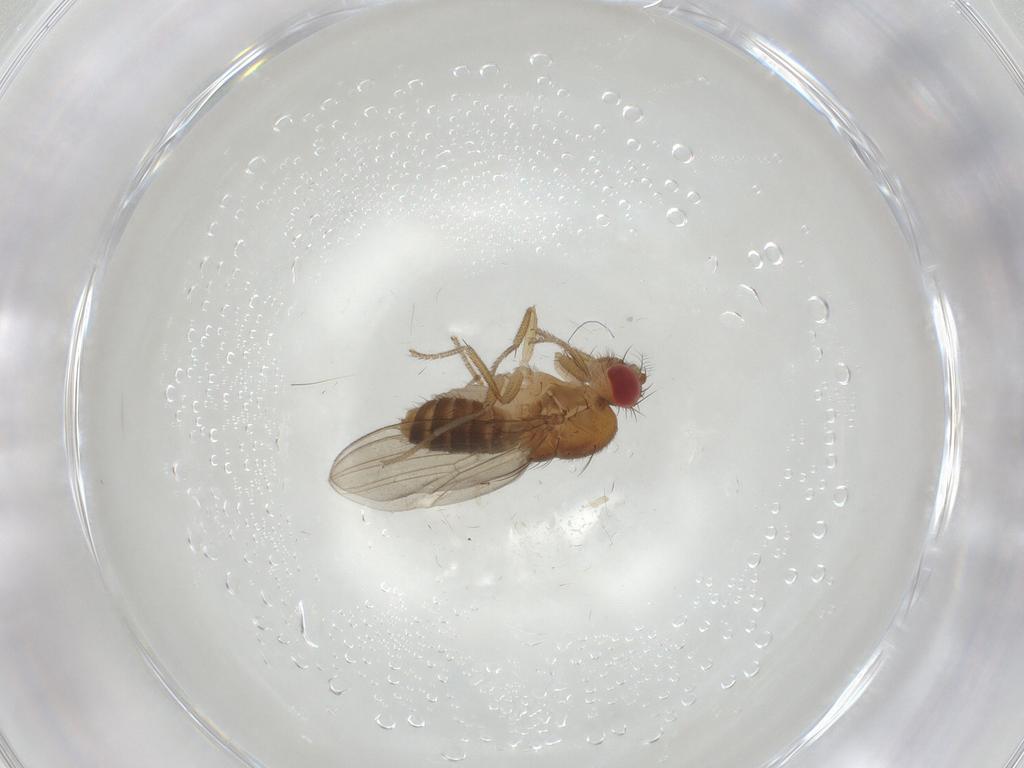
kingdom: Animalia
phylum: Arthropoda
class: Insecta
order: Diptera
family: Drosophilidae
